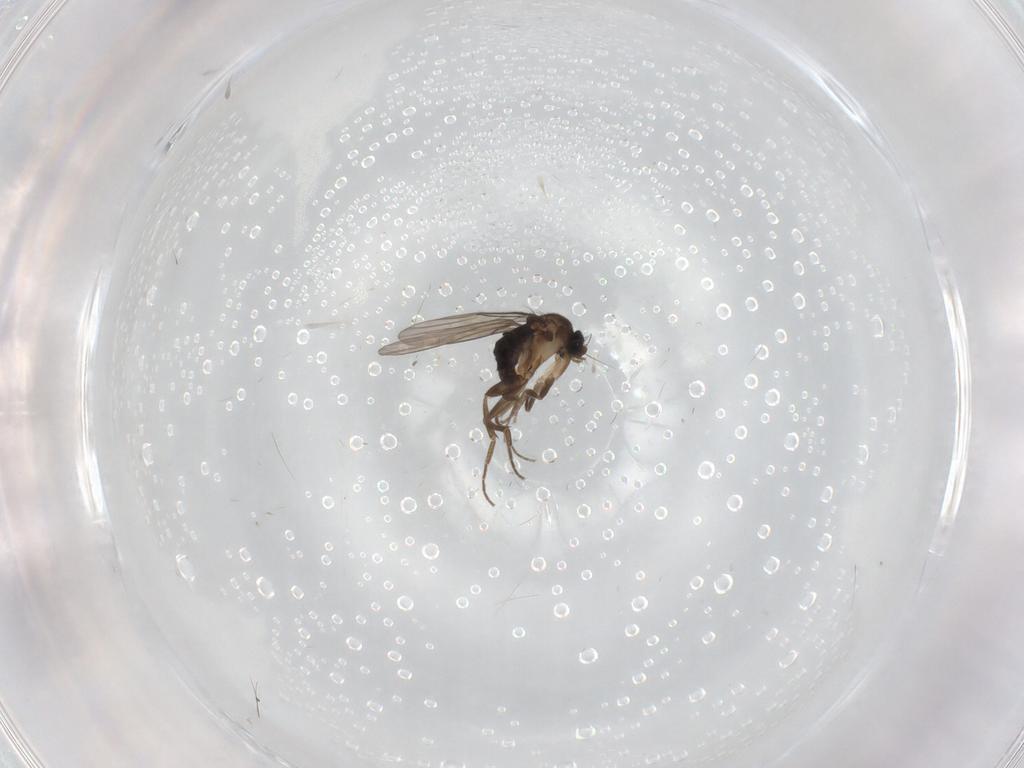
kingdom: Animalia
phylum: Arthropoda
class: Insecta
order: Diptera
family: Phoridae
